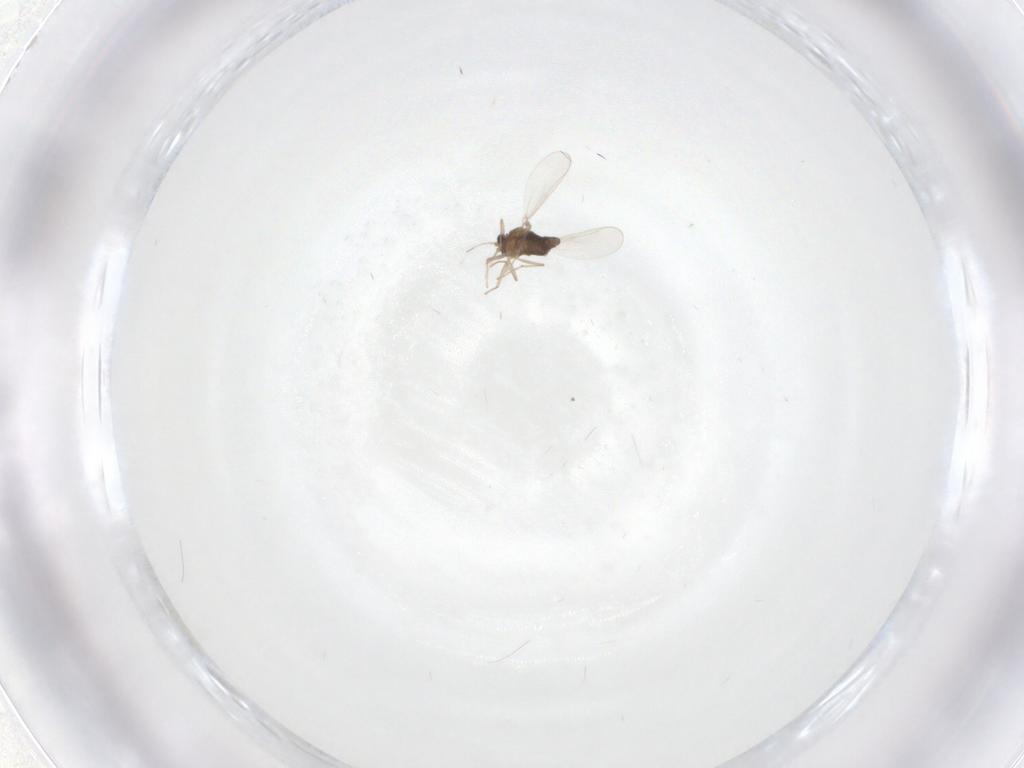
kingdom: Animalia
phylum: Arthropoda
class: Insecta
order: Diptera
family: Chironomidae
